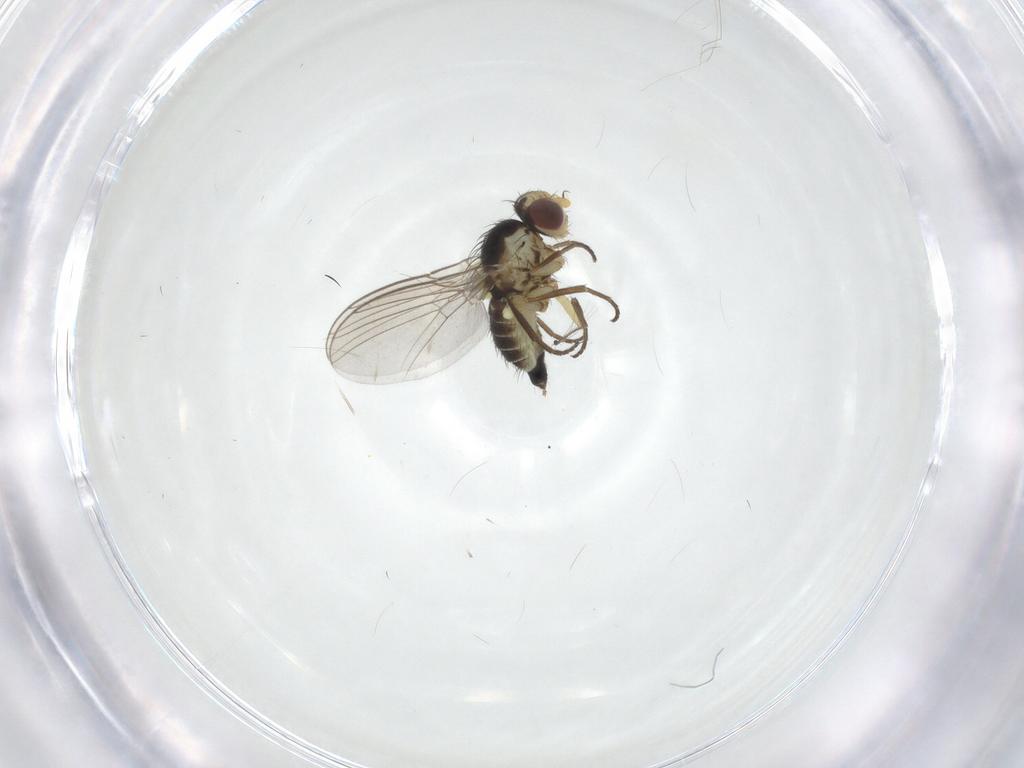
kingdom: Animalia
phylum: Arthropoda
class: Insecta
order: Diptera
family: Agromyzidae
